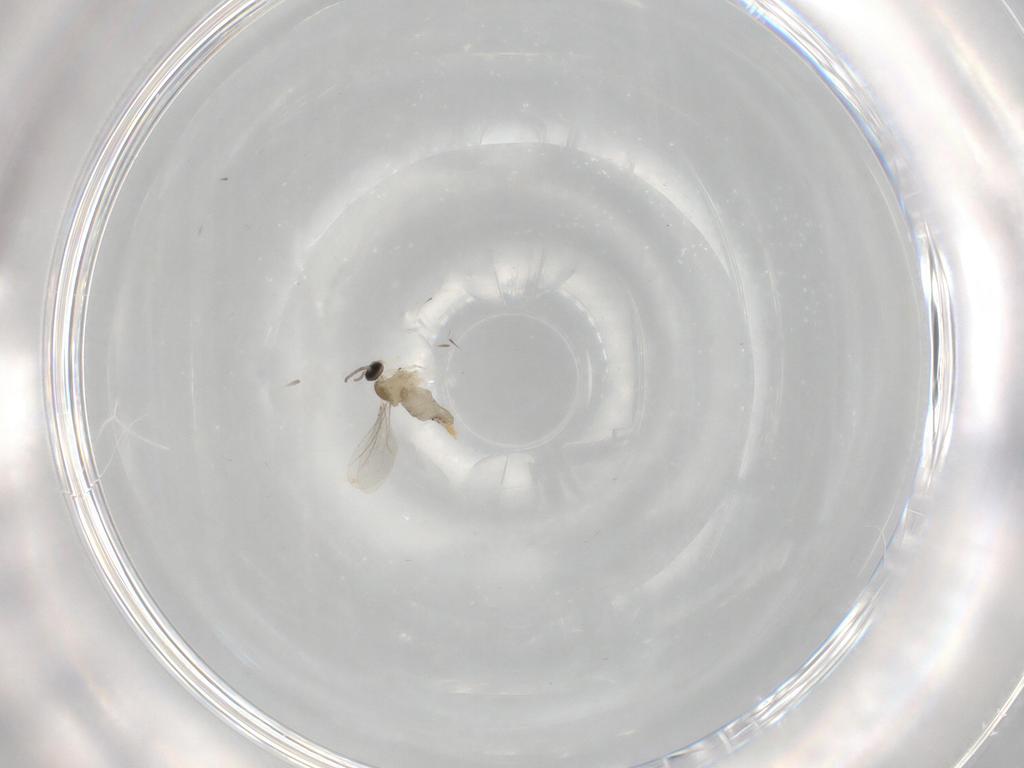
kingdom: Animalia
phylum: Arthropoda
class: Insecta
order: Diptera
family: Cecidomyiidae
